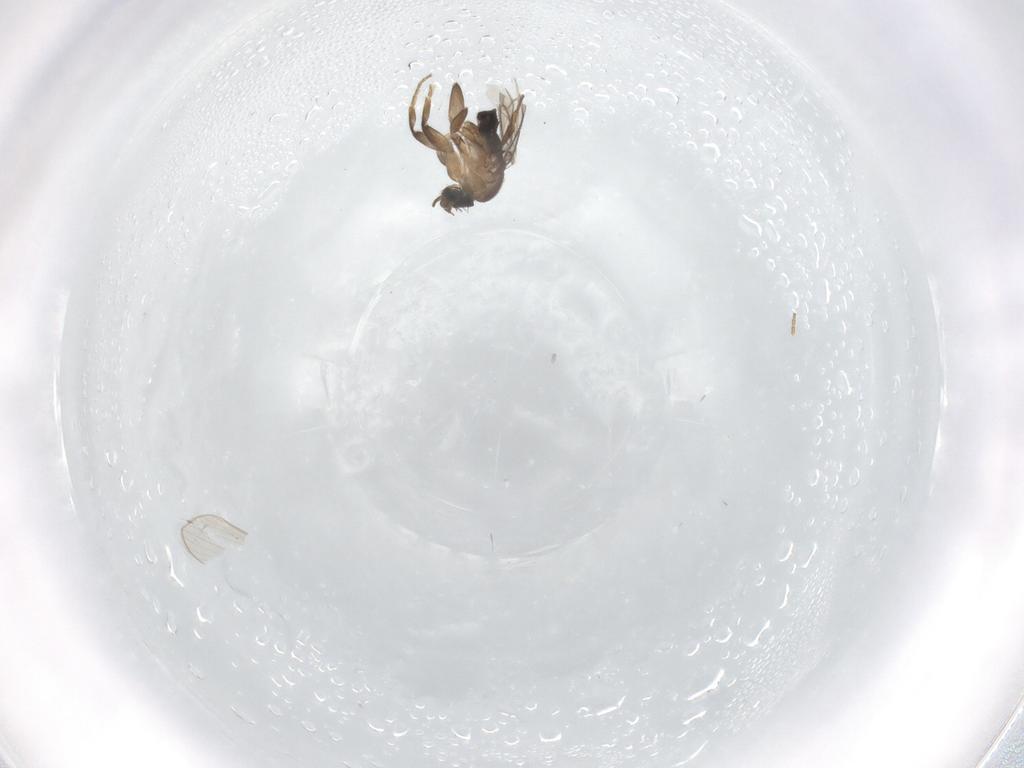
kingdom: Animalia
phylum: Arthropoda
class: Insecta
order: Diptera
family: Phoridae
